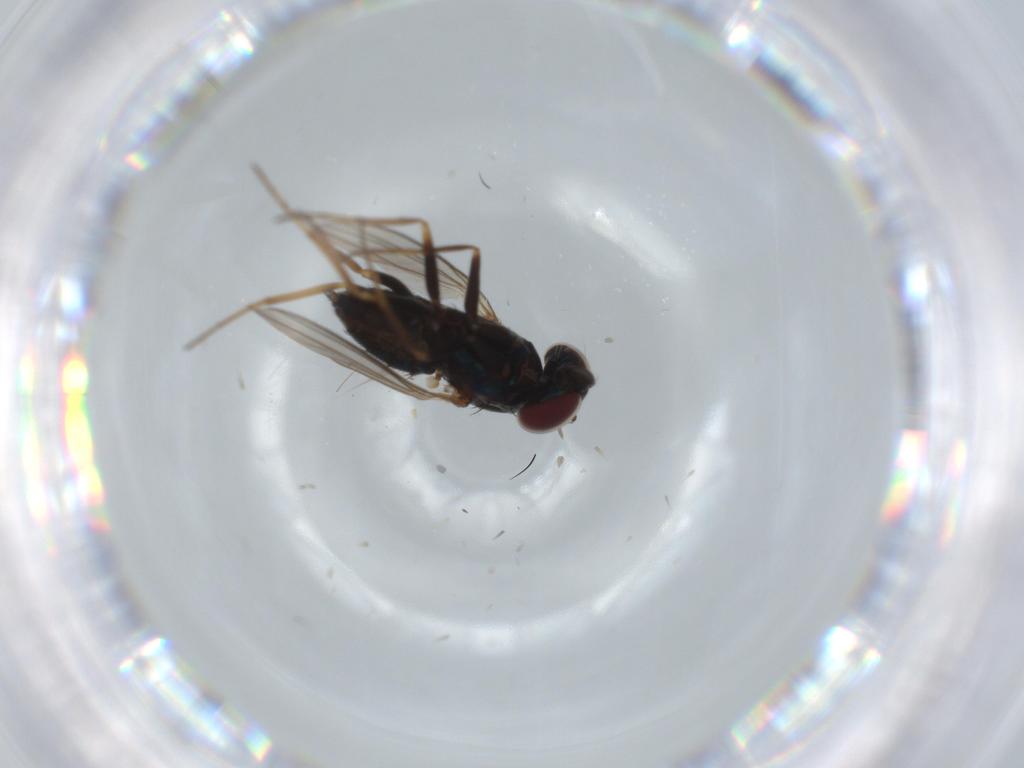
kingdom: Animalia
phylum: Arthropoda
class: Insecta
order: Diptera
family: Chironomidae
